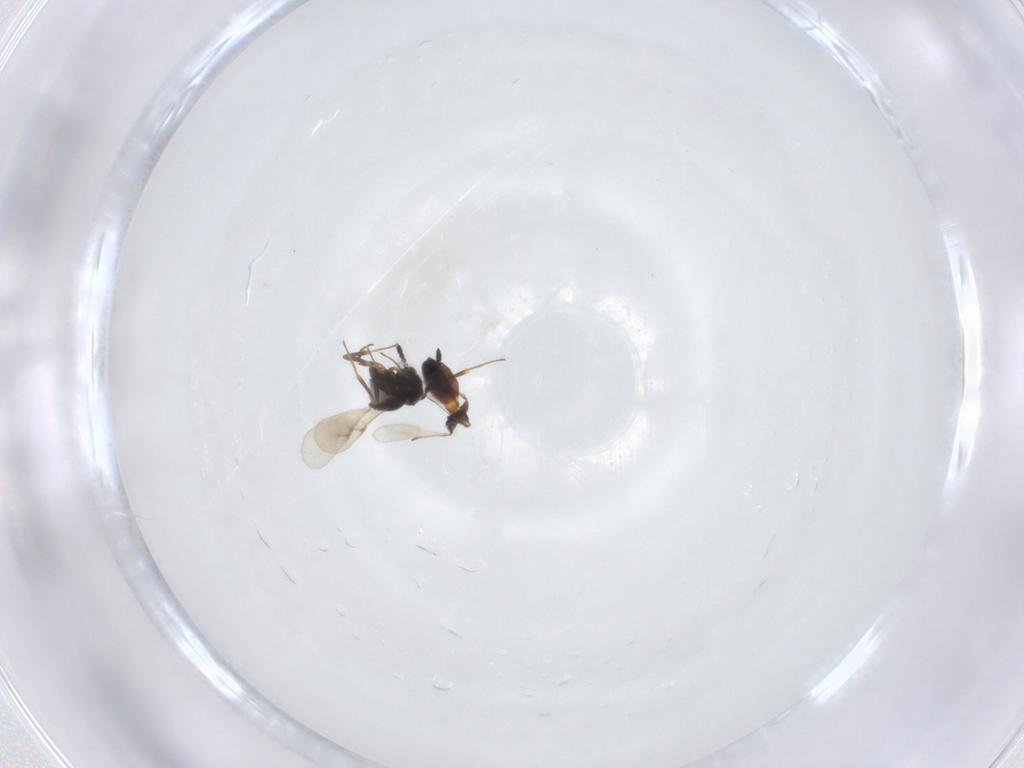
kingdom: Animalia
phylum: Arthropoda
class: Insecta
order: Hymenoptera
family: Scelionidae
